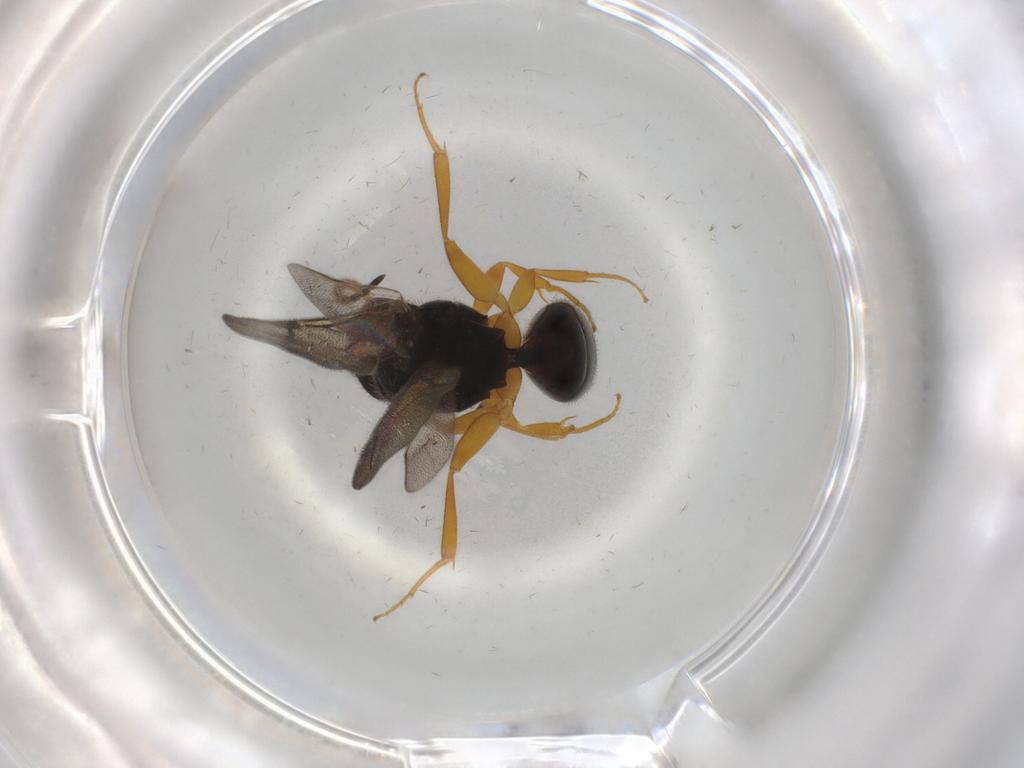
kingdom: Animalia
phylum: Arthropoda
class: Insecta
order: Hymenoptera
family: Bethylidae
